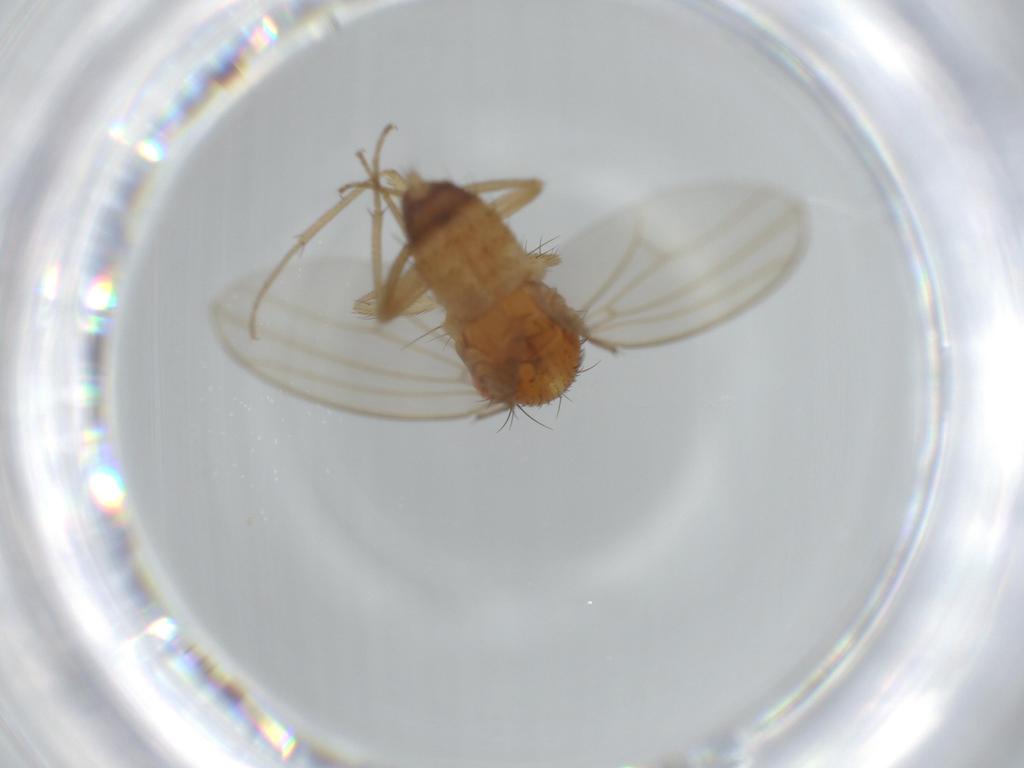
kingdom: Animalia
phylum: Arthropoda
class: Insecta
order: Diptera
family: Drosophilidae
